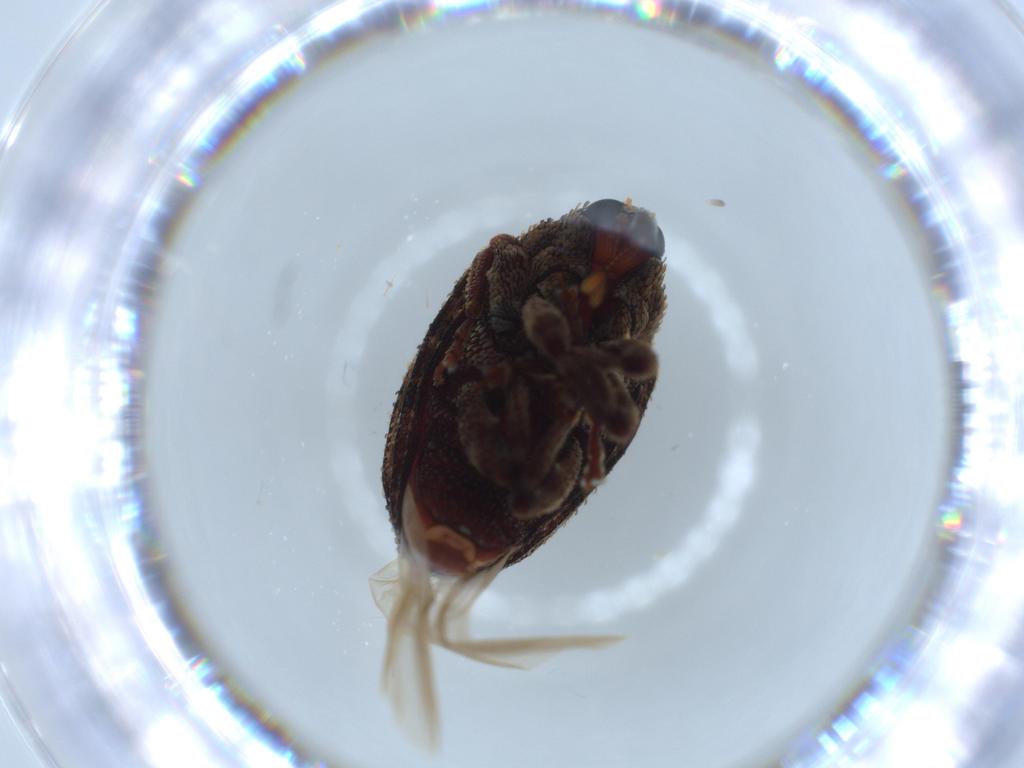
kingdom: Animalia
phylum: Arthropoda
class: Insecta
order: Coleoptera
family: Curculionidae
